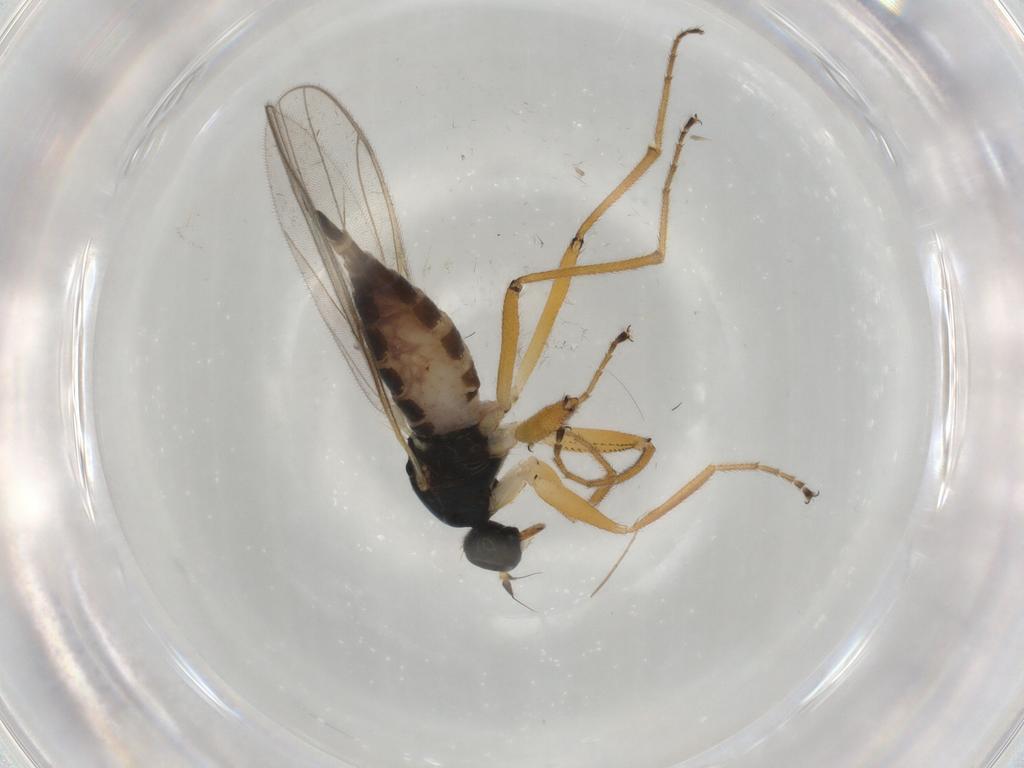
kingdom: Animalia
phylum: Arthropoda
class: Insecta
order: Diptera
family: Hybotidae
